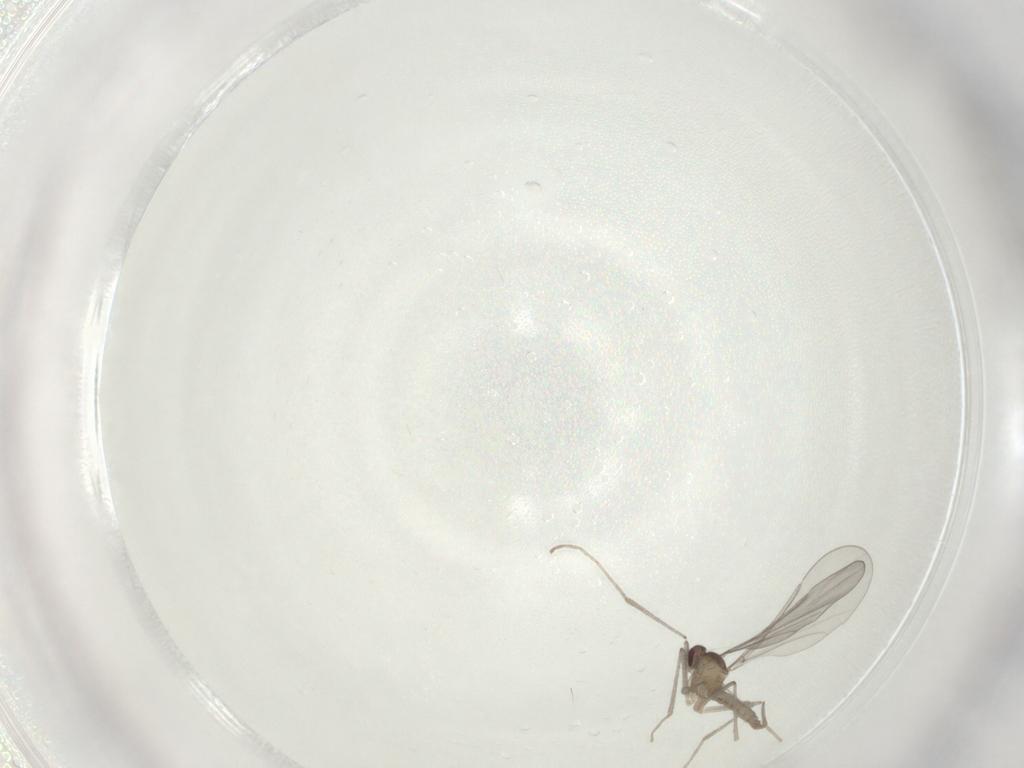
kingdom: Animalia
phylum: Arthropoda
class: Insecta
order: Diptera
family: Cecidomyiidae
